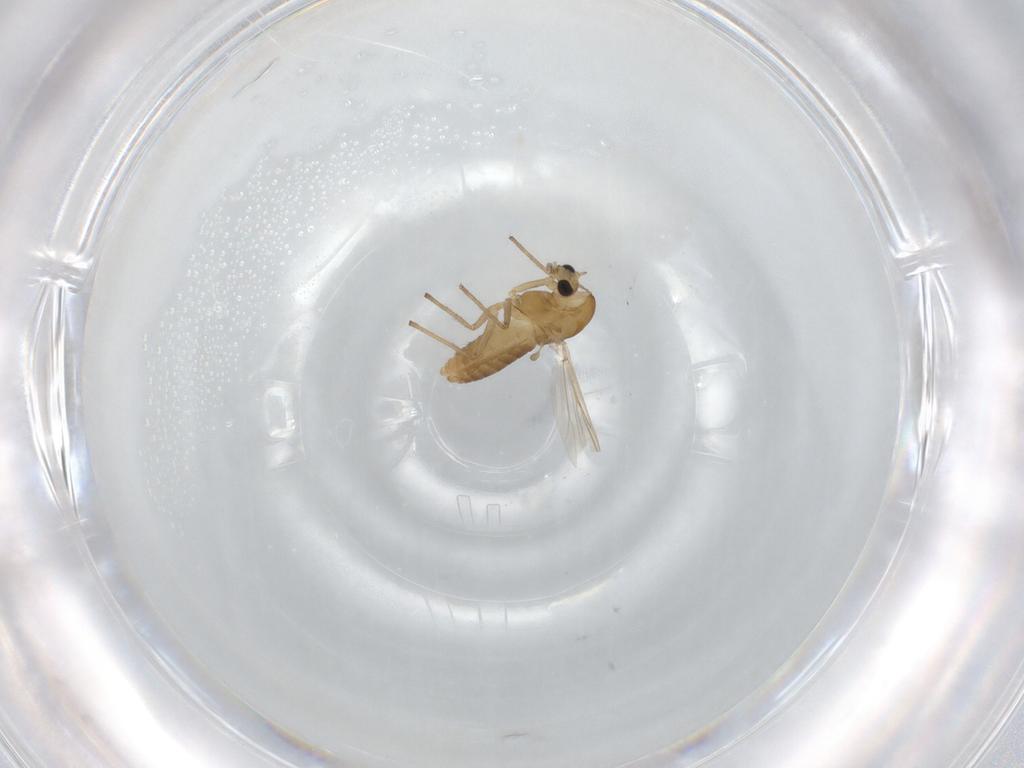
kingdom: Animalia
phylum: Arthropoda
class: Insecta
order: Diptera
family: Chironomidae
